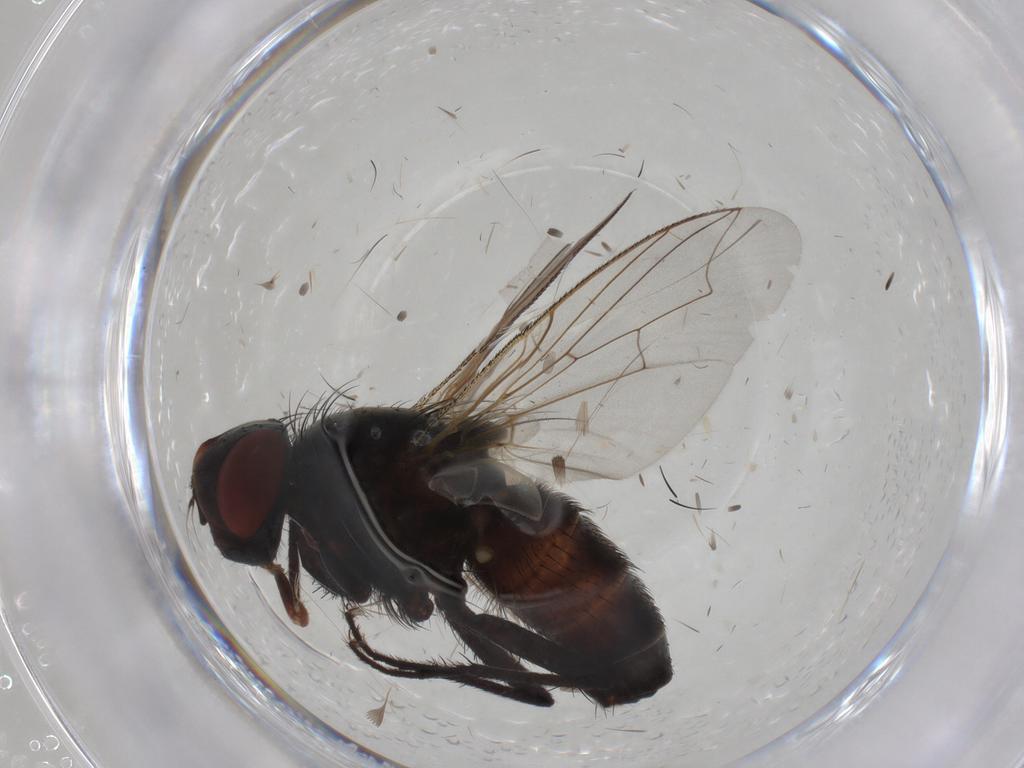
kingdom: Animalia
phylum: Arthropoda
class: Insecta
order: Diptera
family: Sarcophagidae
